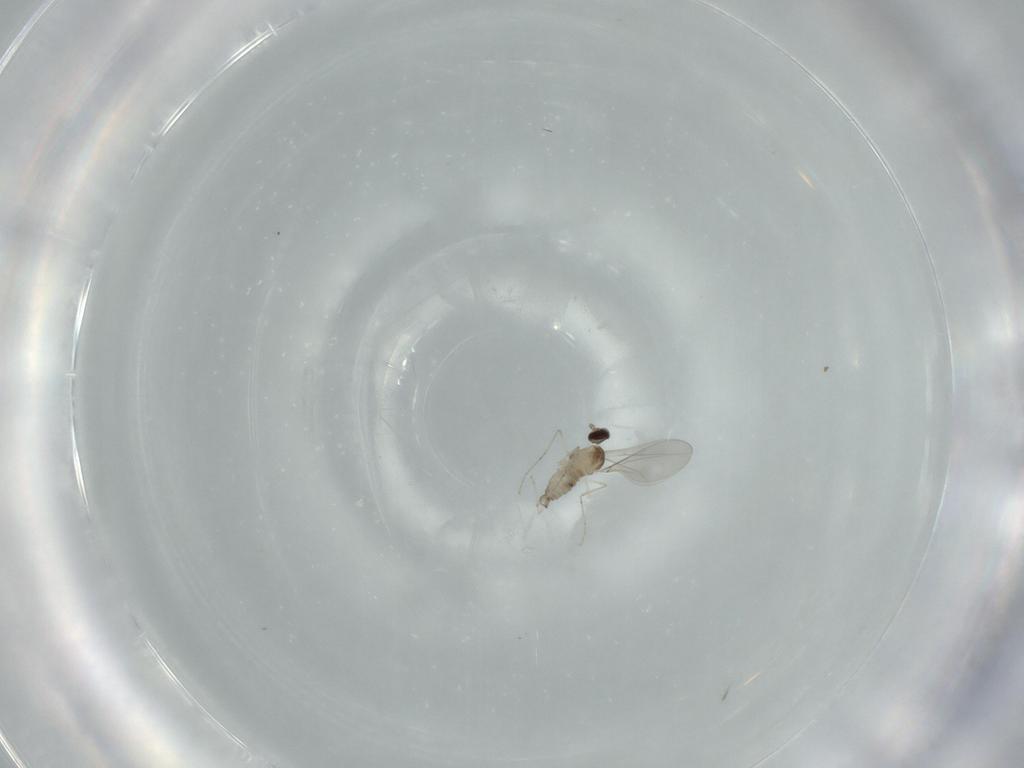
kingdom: Animalia
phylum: Arthropoda
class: Insecta
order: Diptera
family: Cecidomyiidae
